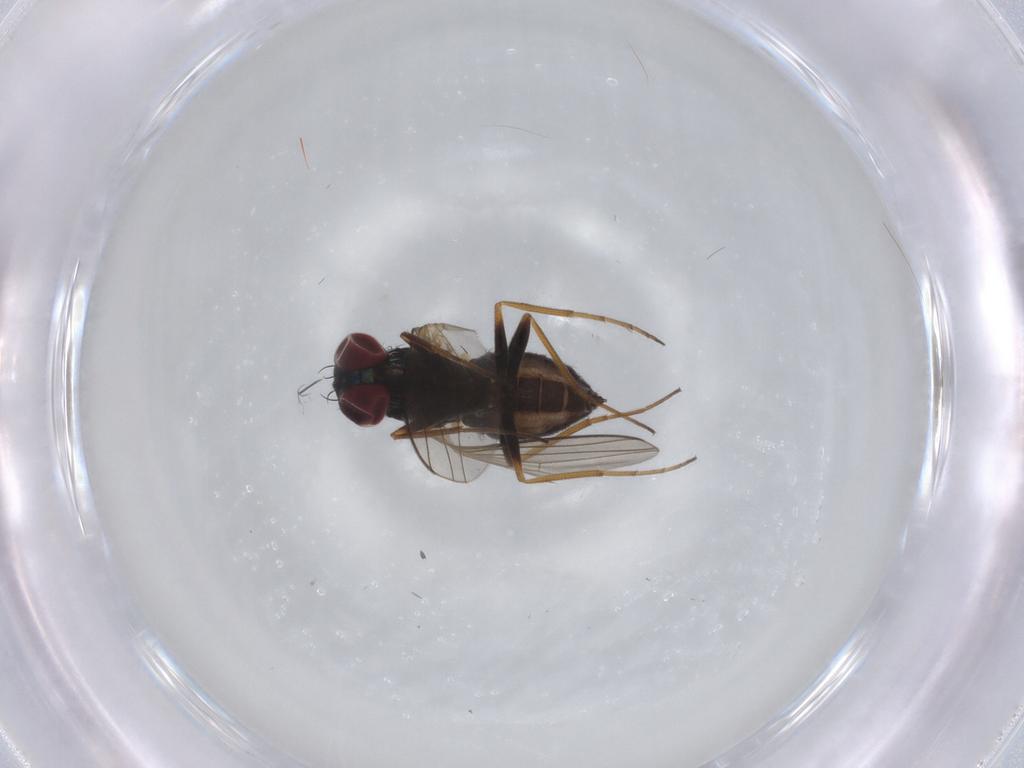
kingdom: Animalia
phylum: Arthropoda
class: Insecta
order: Diptera
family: Dolichopodidae
